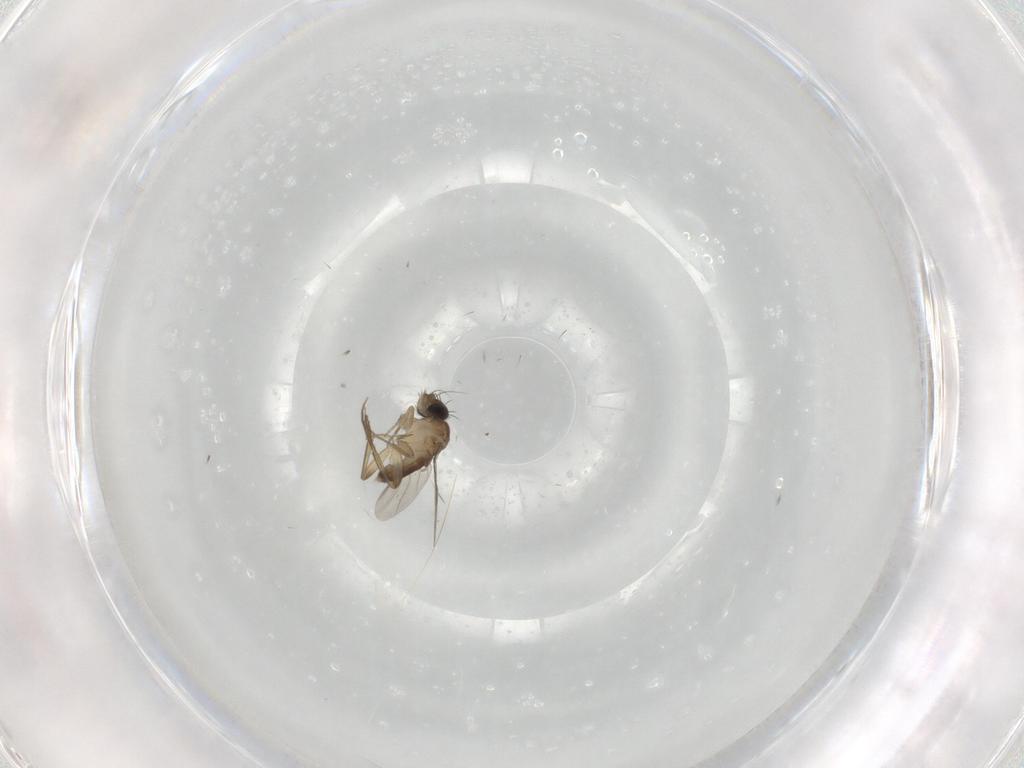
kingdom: Animalia
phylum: Arthropoda
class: Insecta
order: Diptera
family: Phoridae
